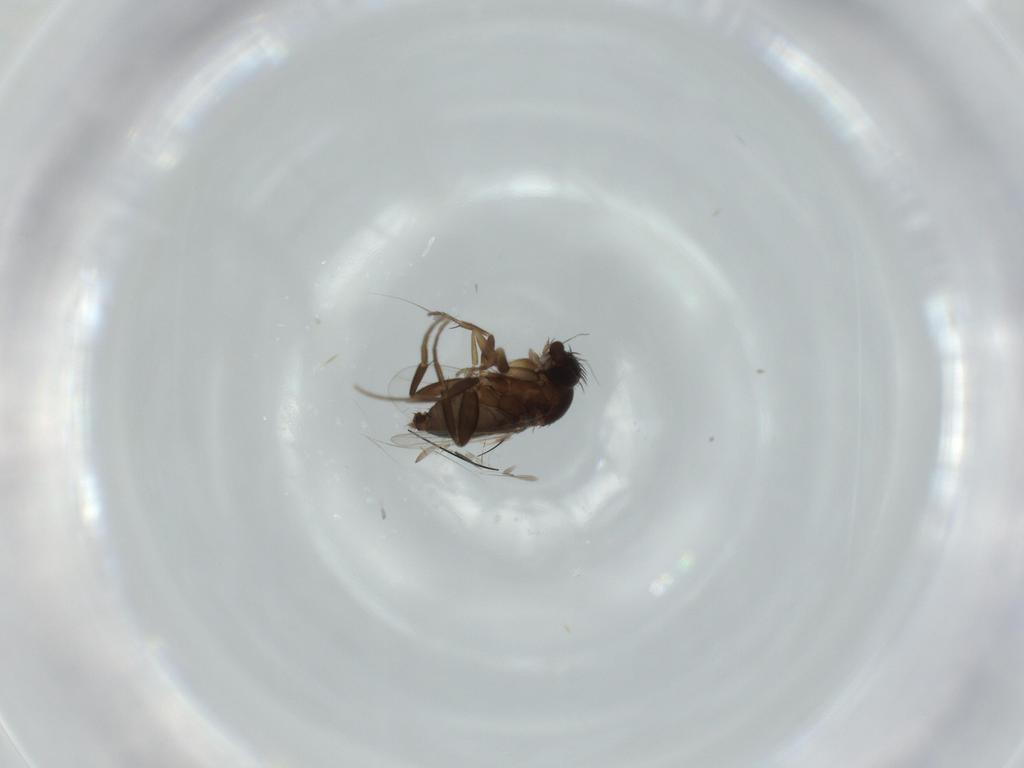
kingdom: Animalia
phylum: Arthropoda
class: Insecta
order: Diptera
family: Phoridae
